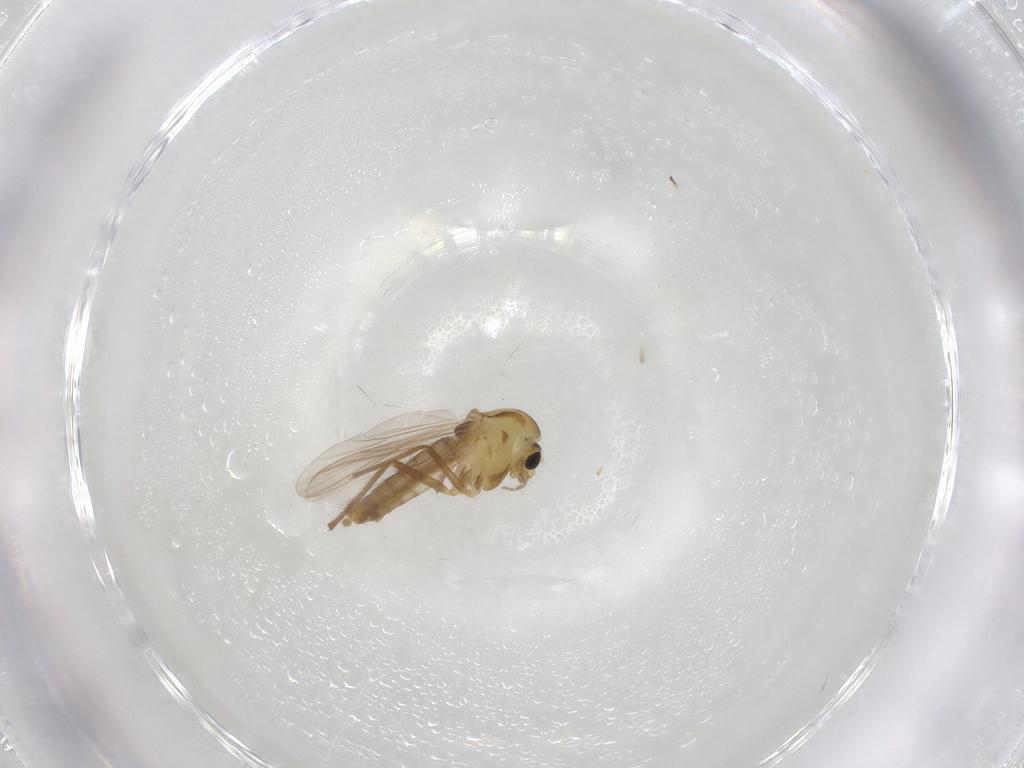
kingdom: Animalia
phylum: Arthropoda
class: Insecta
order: Diptera
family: Chironomidae
